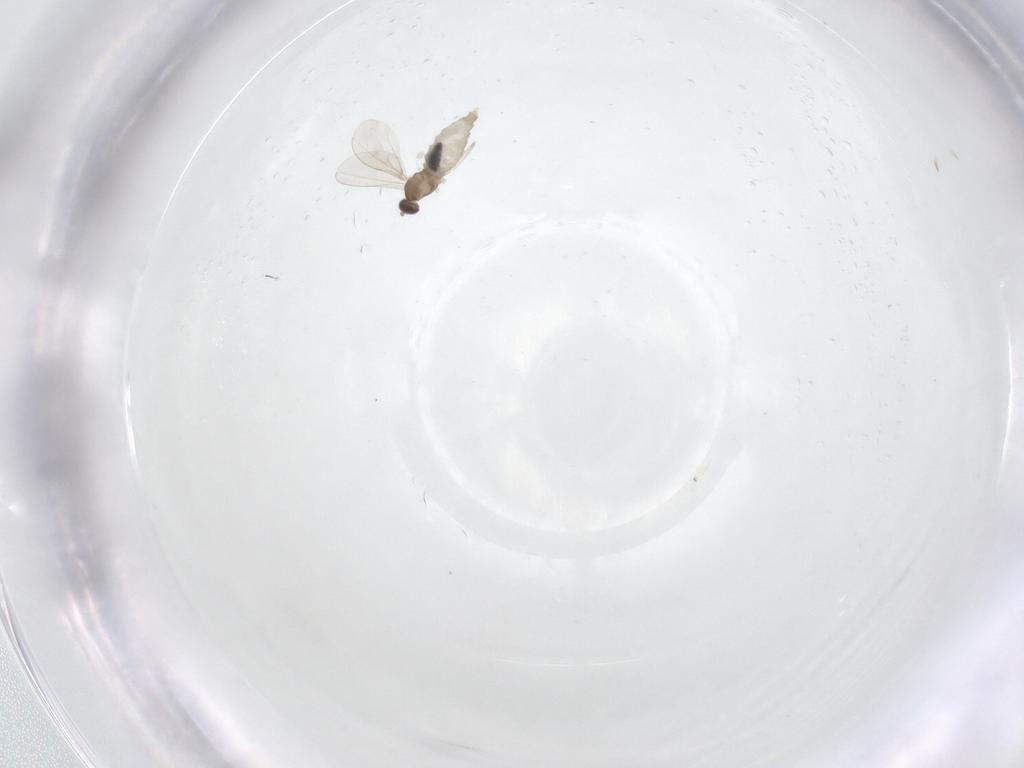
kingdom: Animalia
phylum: Arthropoda
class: Insecta
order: Diptera
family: Cecidomyiidae
